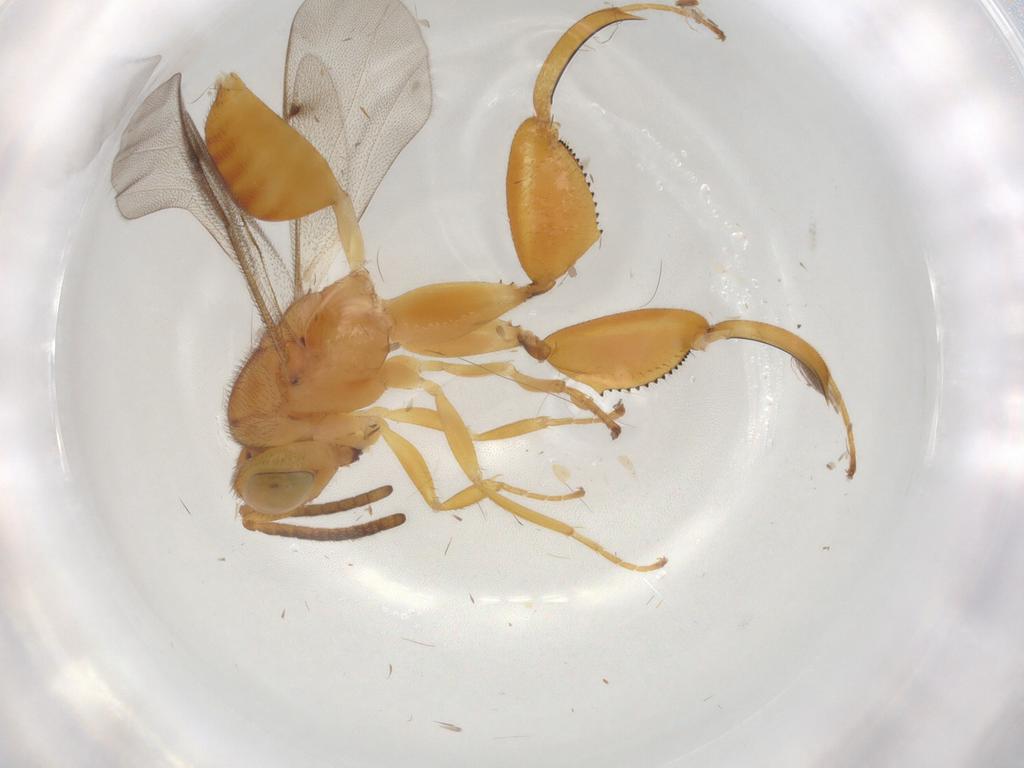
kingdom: Animalia
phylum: Arthropoda
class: Insecta
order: Hymenoptera
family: Chalcididae
